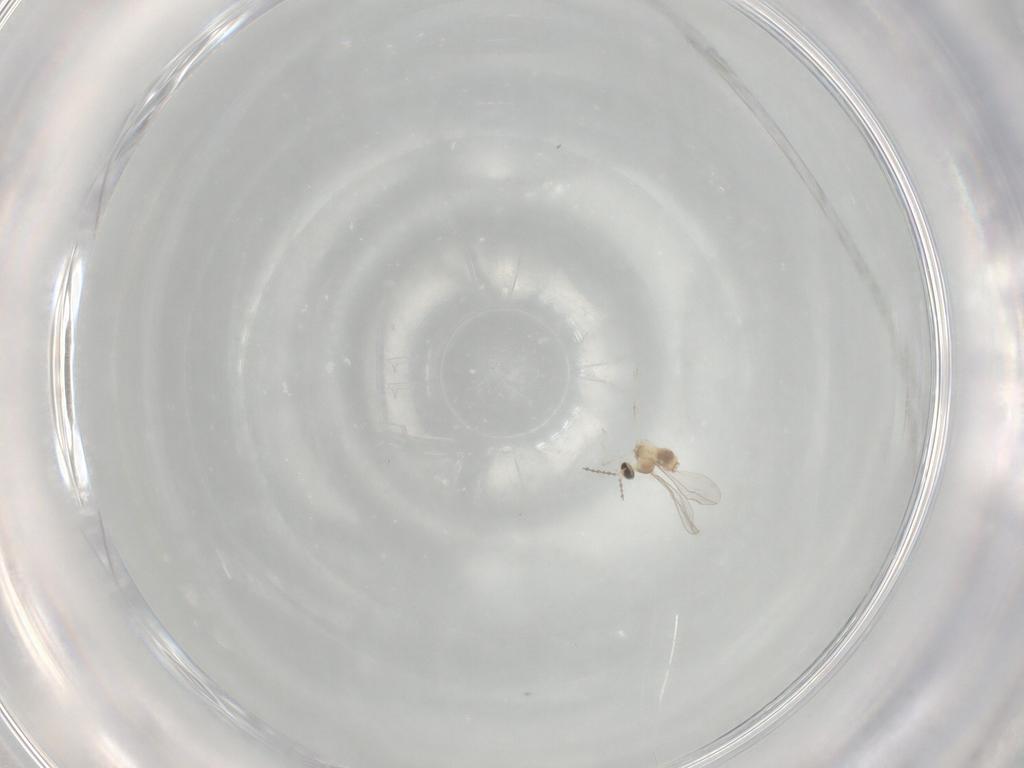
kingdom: Animalia
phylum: Arthropoda
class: Insecta
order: Diptera
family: Cecidomyiidae
